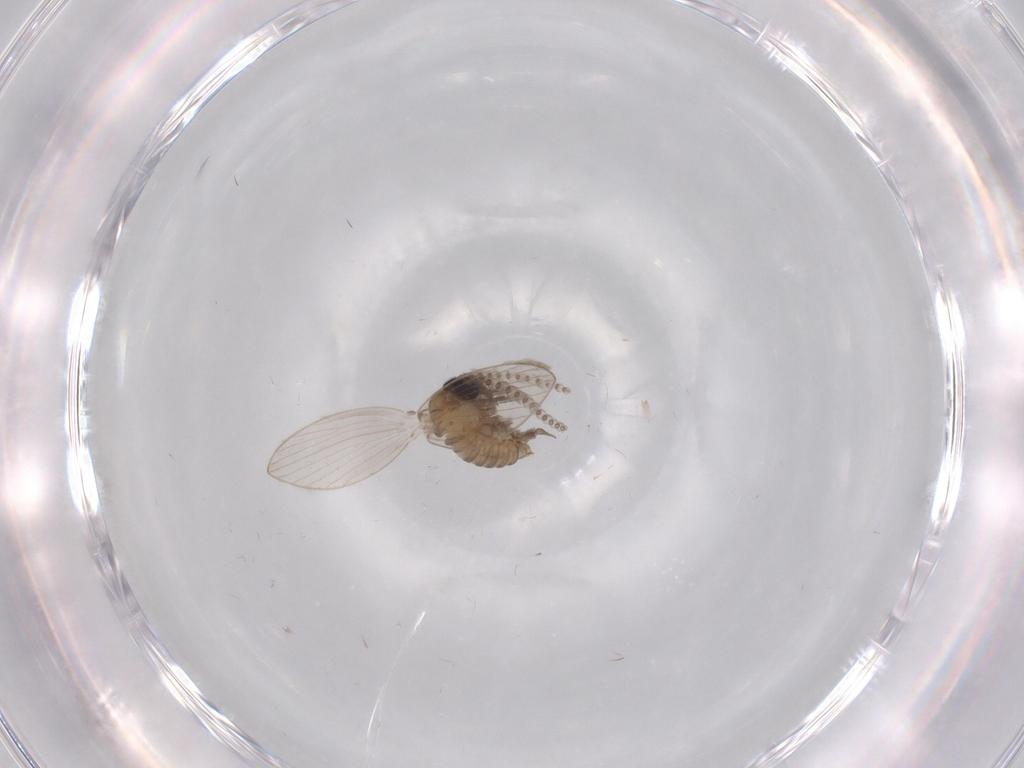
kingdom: Animalia
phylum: Arthropoda
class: Insecta
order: Diptera
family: Psychodidae
